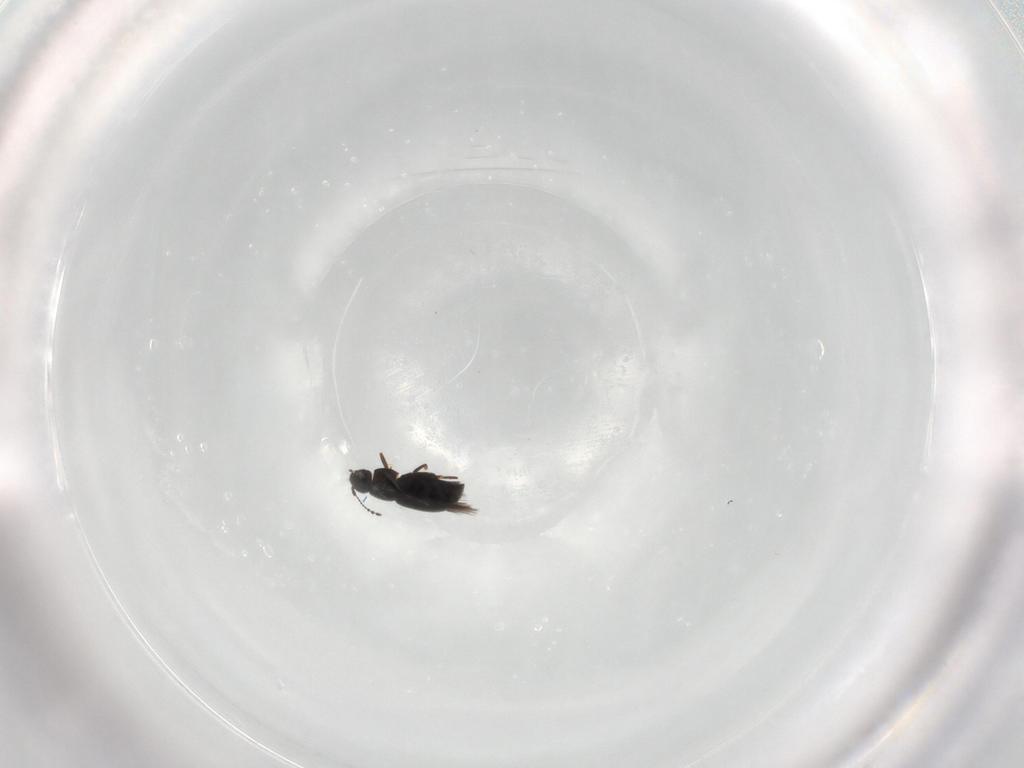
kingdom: Animalia
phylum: Arthropoda
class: Insecta
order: Coleoptera
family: Ptiliidae
